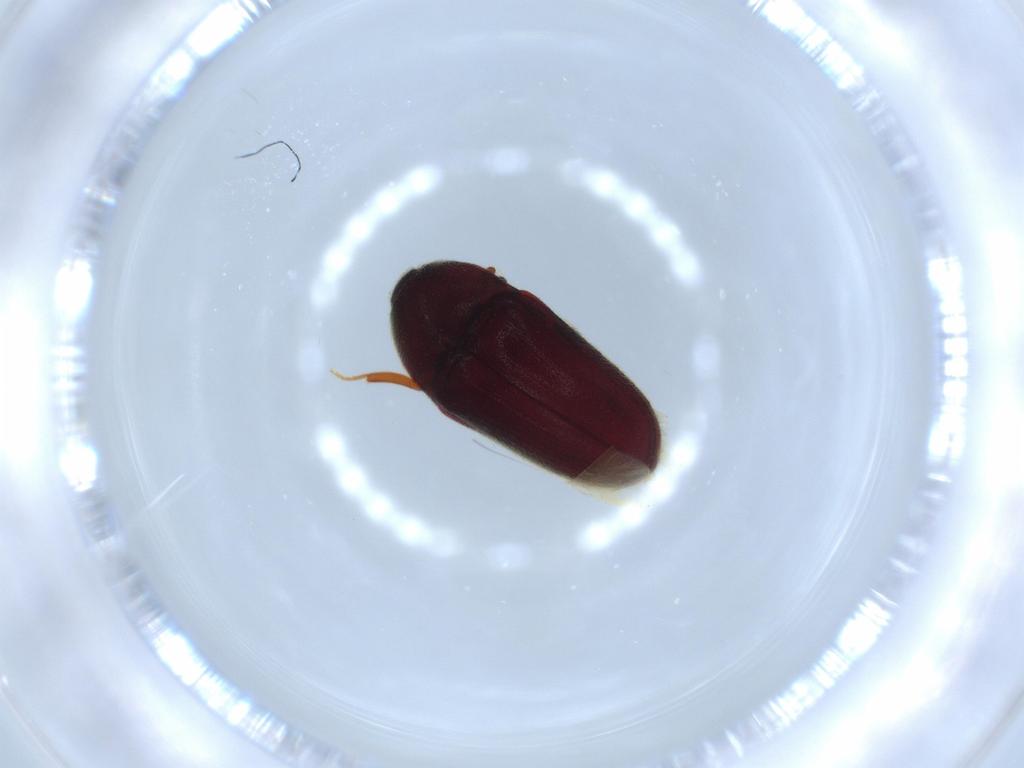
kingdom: Animalia
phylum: Arthropoda
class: Insecta
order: Coleoptera
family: Throscidae
